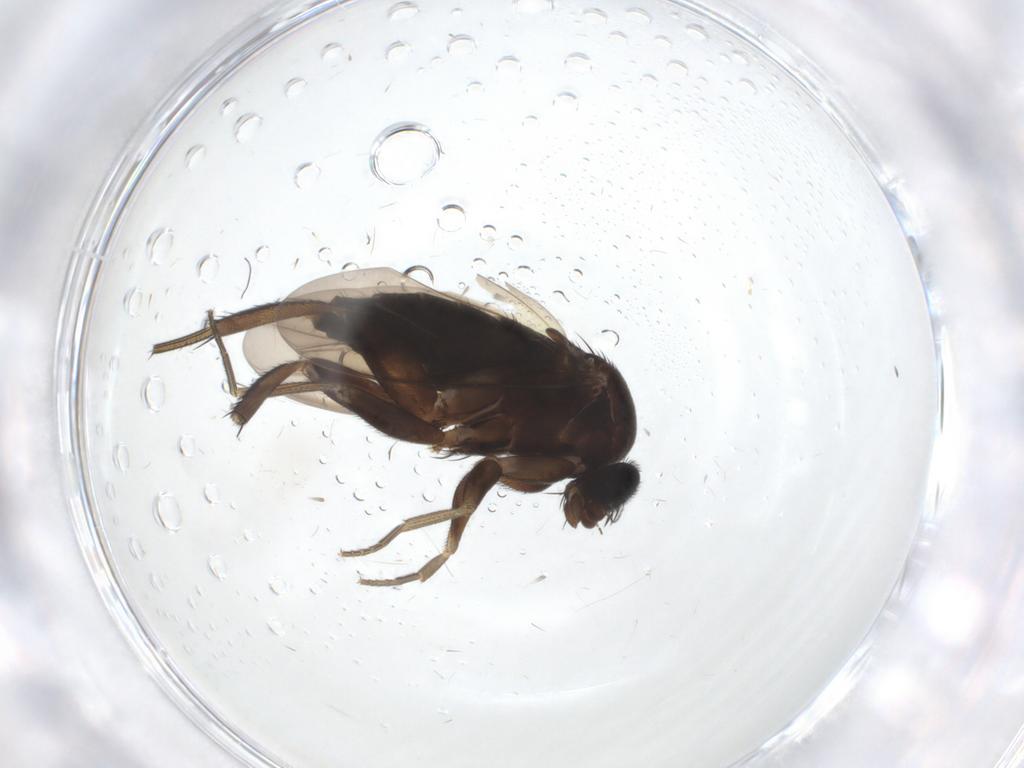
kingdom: Animalia
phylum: Arthropoda
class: Insecta
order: Diptera
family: Phoridae
